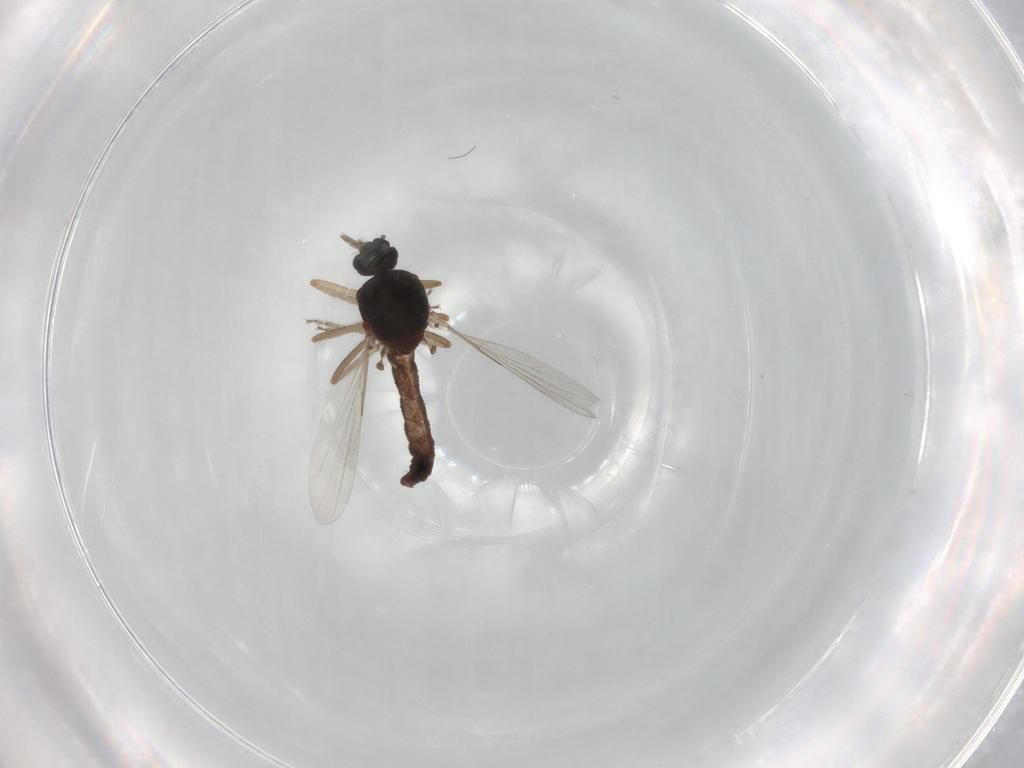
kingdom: Animalia
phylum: Arthropoda
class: Insecta
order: Diptera
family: Ceratopogonidae
